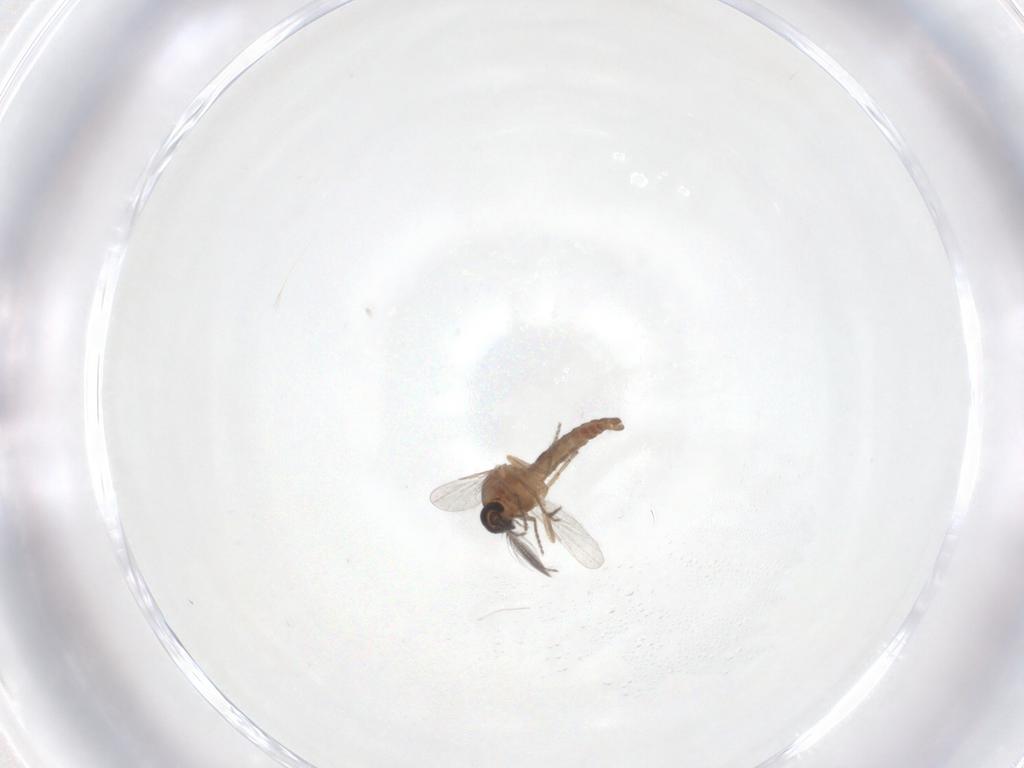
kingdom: Animalia
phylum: Arthropoda
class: Insecta
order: Diptera
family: Ceratopogonidae
